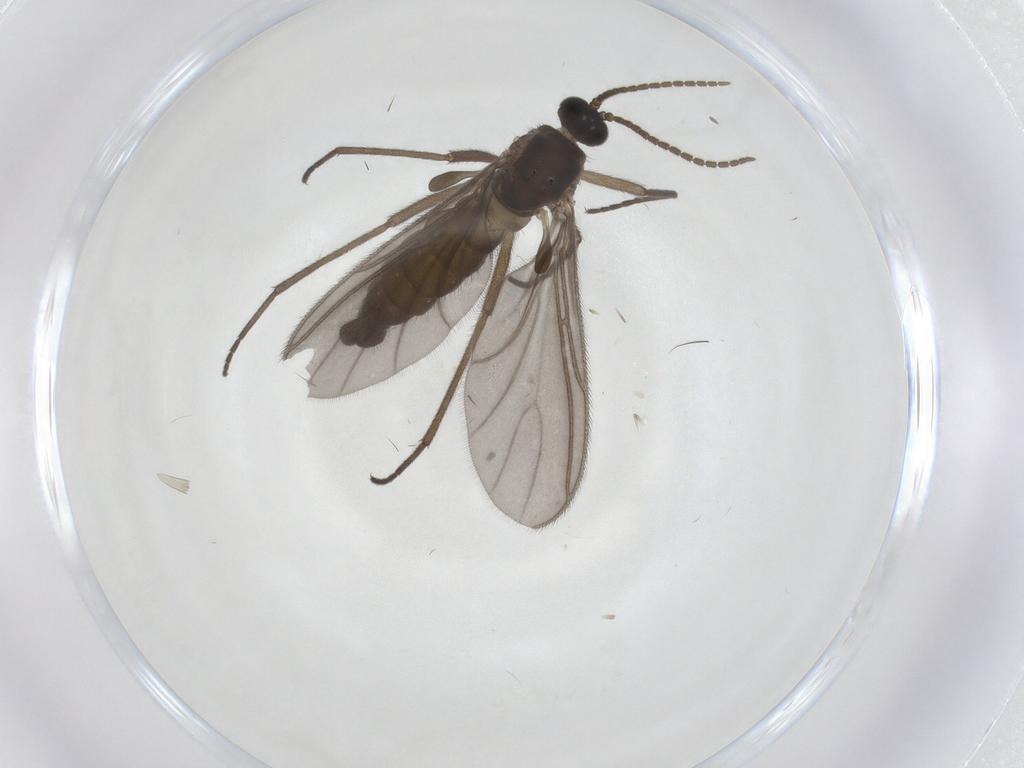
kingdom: Animalia
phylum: Arthropoda
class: Insecta
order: Diptera
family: Sciaridae
